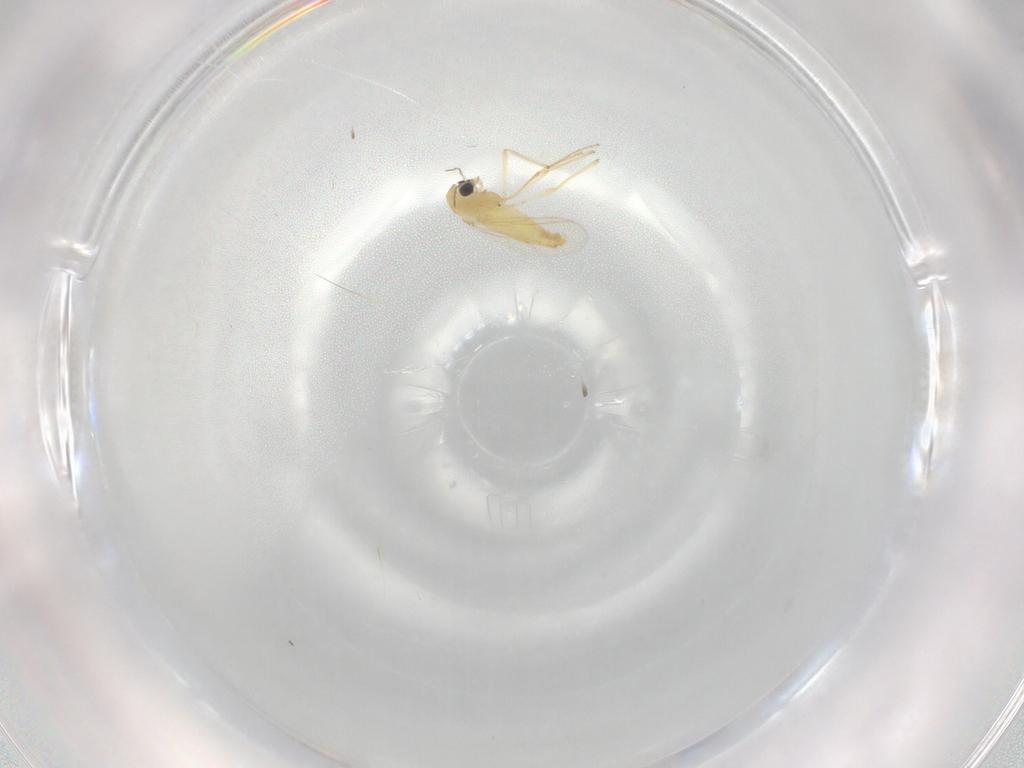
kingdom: Animalia
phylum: Arthropoda
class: Insecta
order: Diptera
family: Chironomidae
